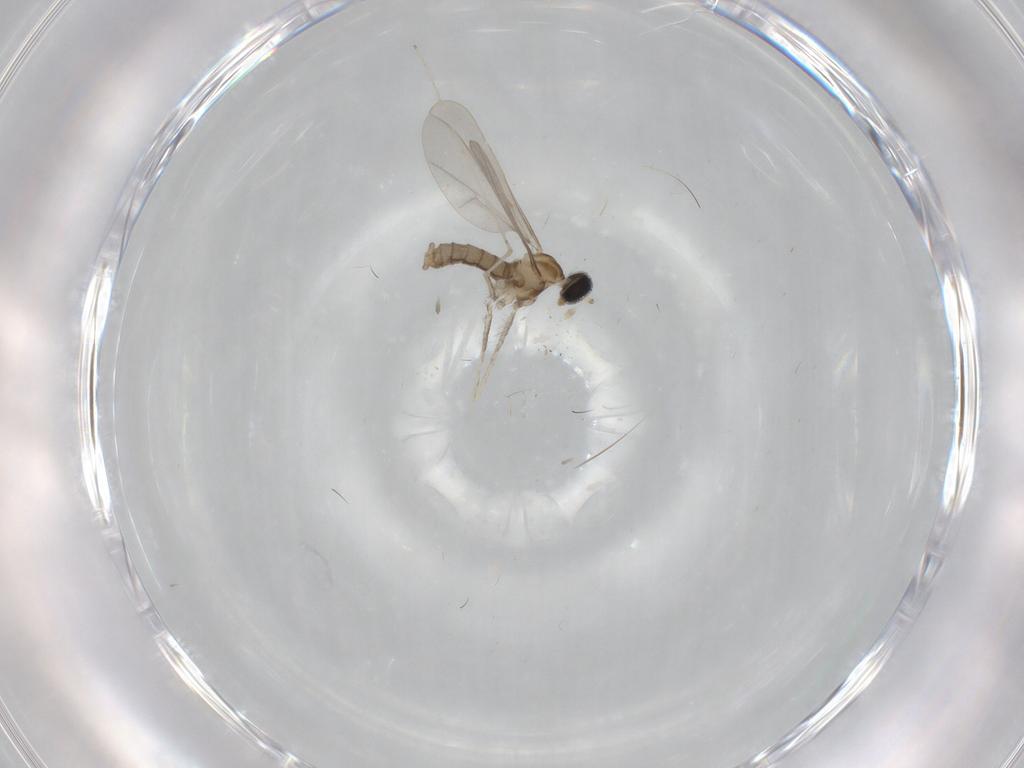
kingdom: Animalia
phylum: Arthropoda
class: Insecta
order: Diptera
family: Cecidomyiidae
